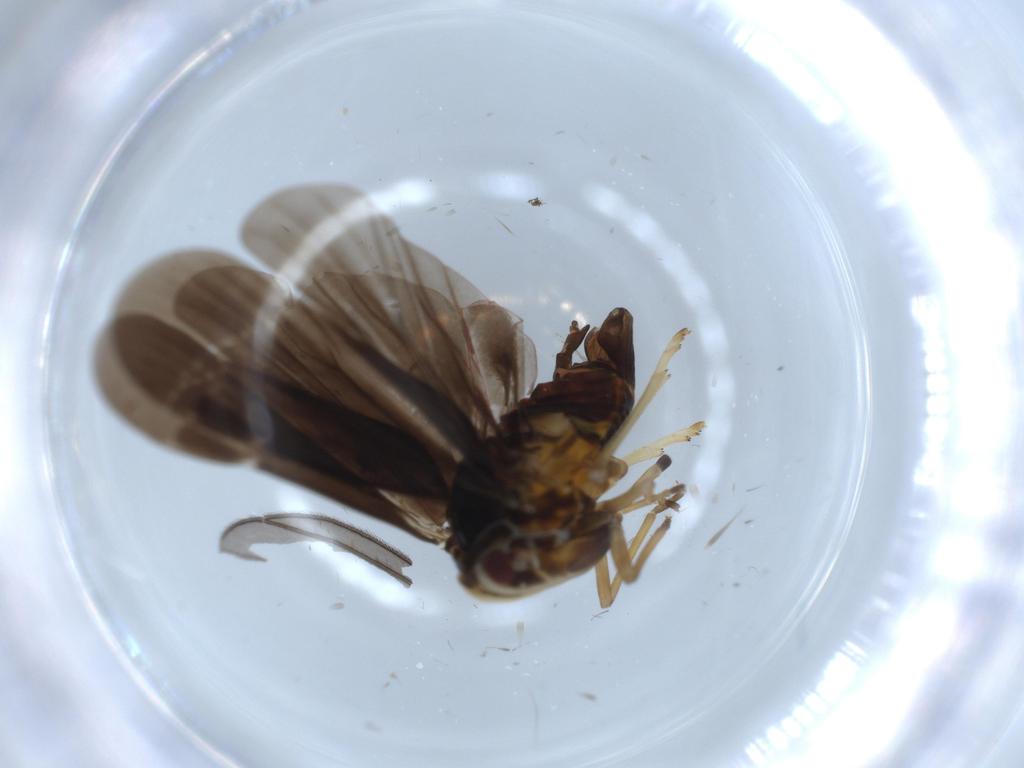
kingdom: Animalia
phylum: Arthropoda
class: Insecta
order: Hemiptera
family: Derbidae
